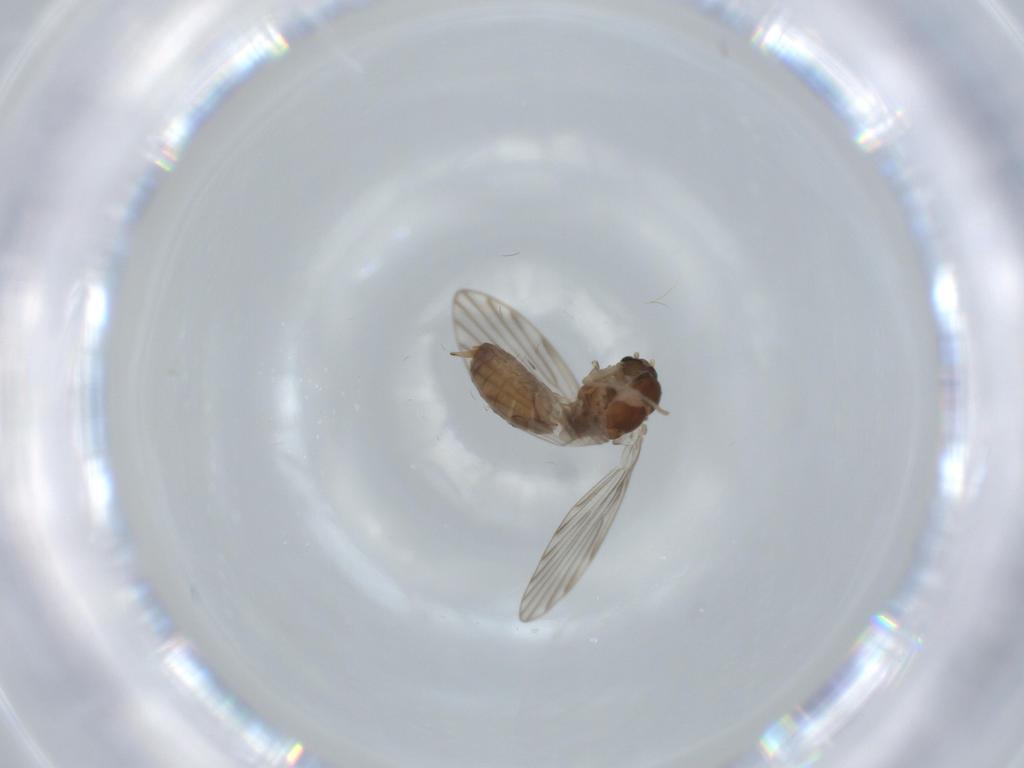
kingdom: Animalia
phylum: Arthropoda
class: Insecta
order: Diptera
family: Psychodidae
